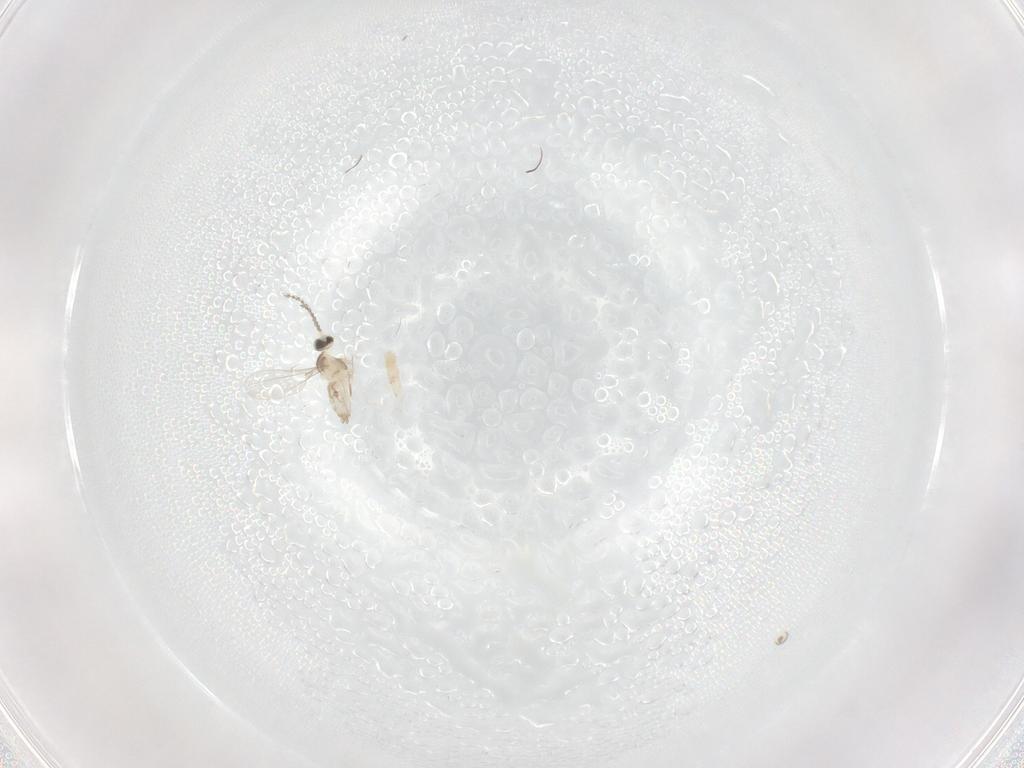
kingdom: Animalia
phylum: Arthropoda
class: Insecta
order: Diptera
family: Cecidomyiidae
